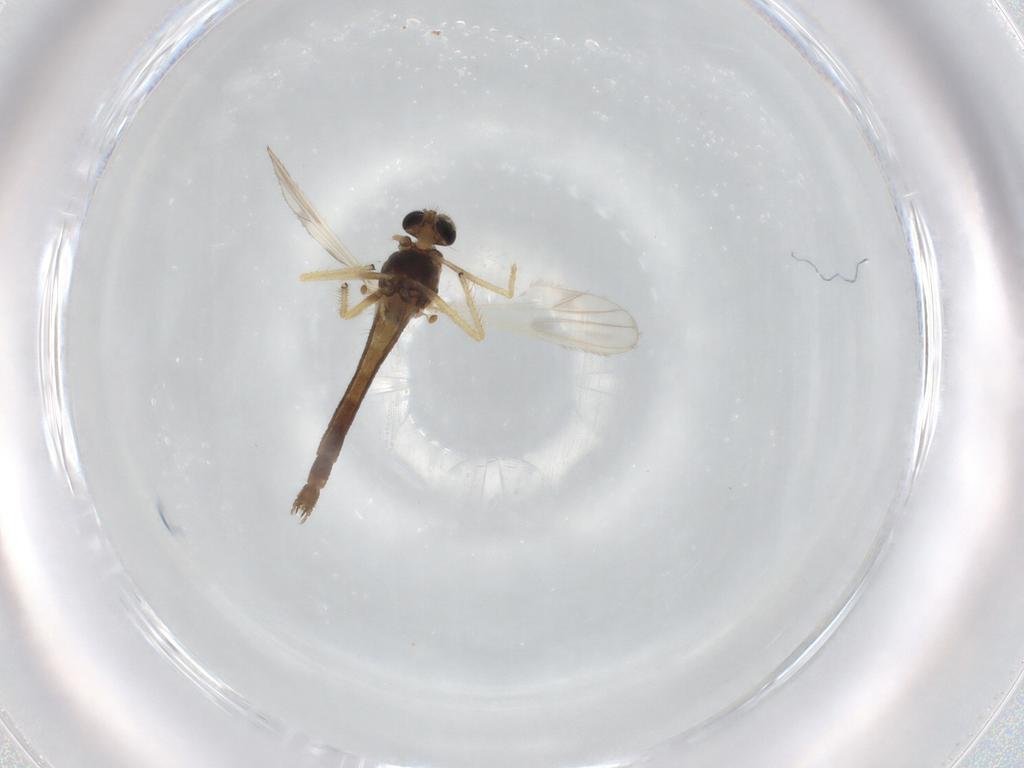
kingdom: Animalia
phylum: Arthropoda
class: Insecta
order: Diptera
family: Chironomidae
